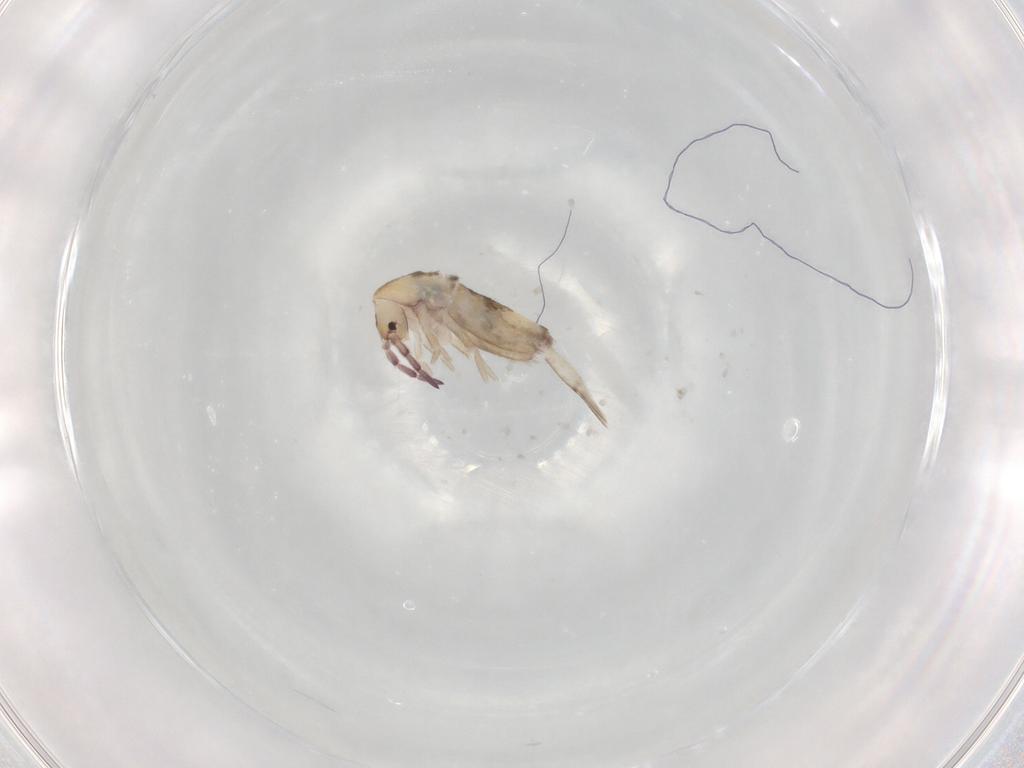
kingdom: Animalia
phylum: Arthropoda
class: Collembola
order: Entomobryomorpha
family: Entomobryidae
